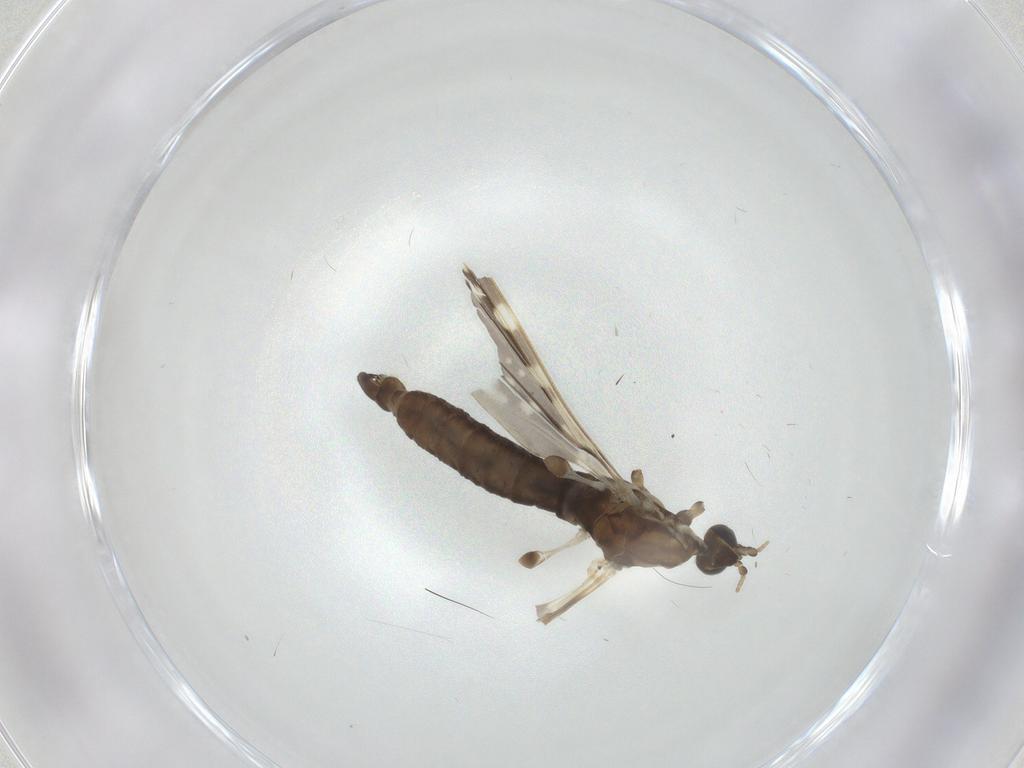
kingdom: Animalia
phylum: Arthropoda
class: Insecta
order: Diptera
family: Limoniidae
